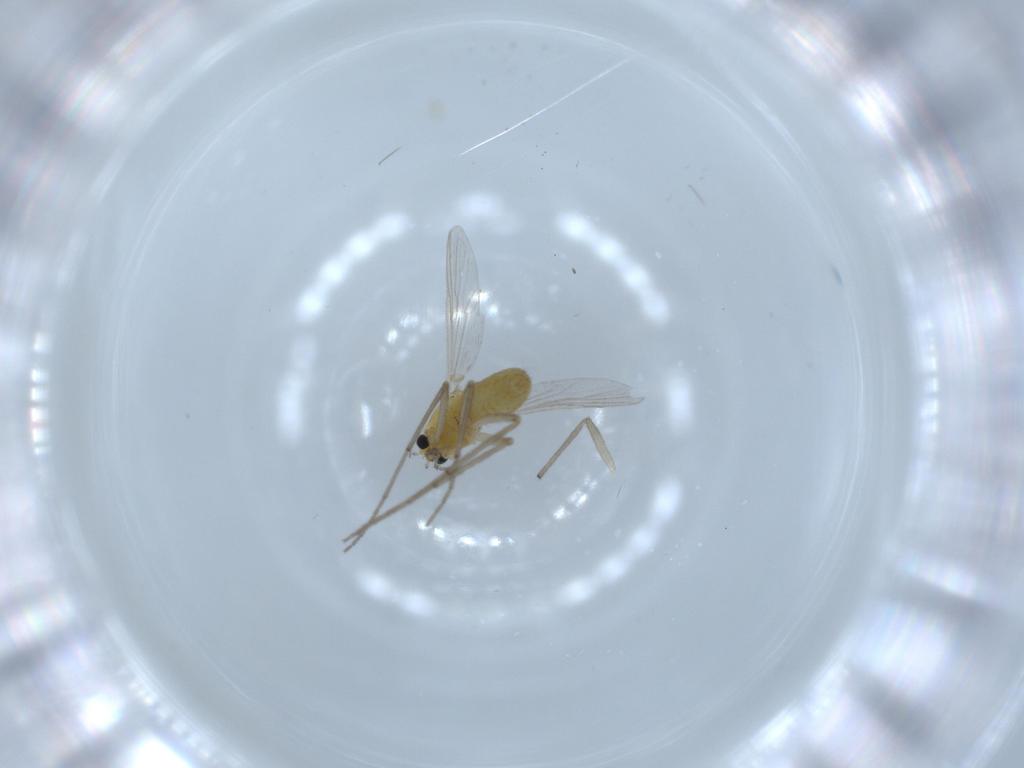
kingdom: Animalia
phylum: Arthropoda
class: Insecta
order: Diptera
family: Chironomidae
